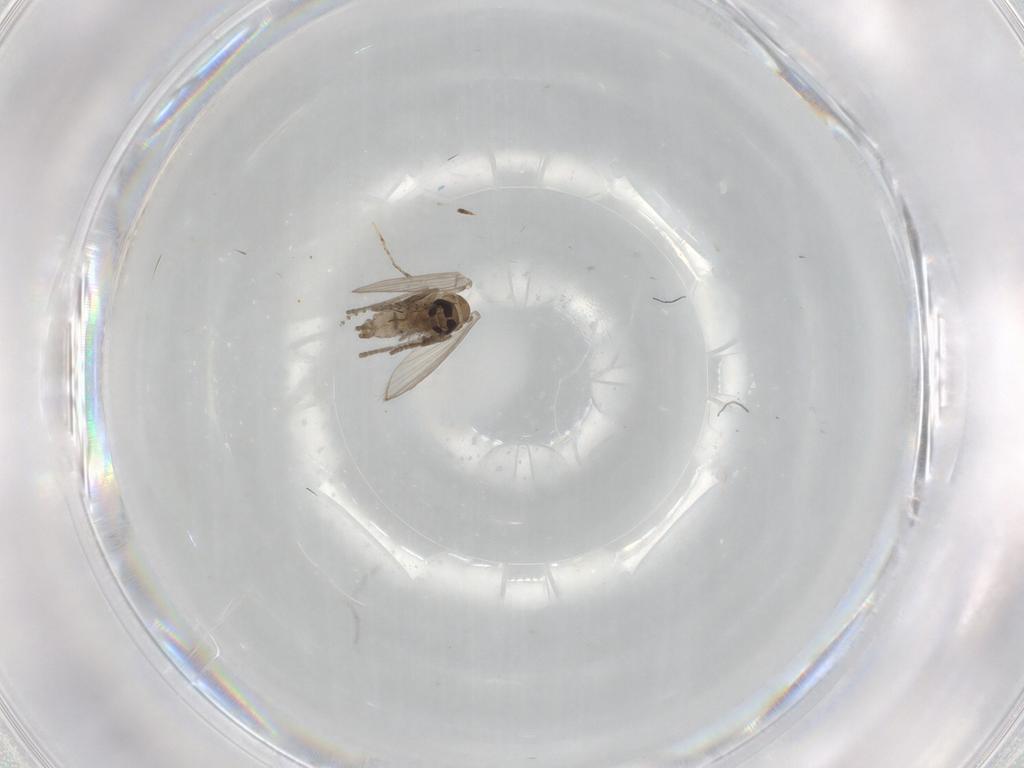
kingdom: Animalia
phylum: Arthropoda
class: Insecta
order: Diptera
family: Psychodidae
